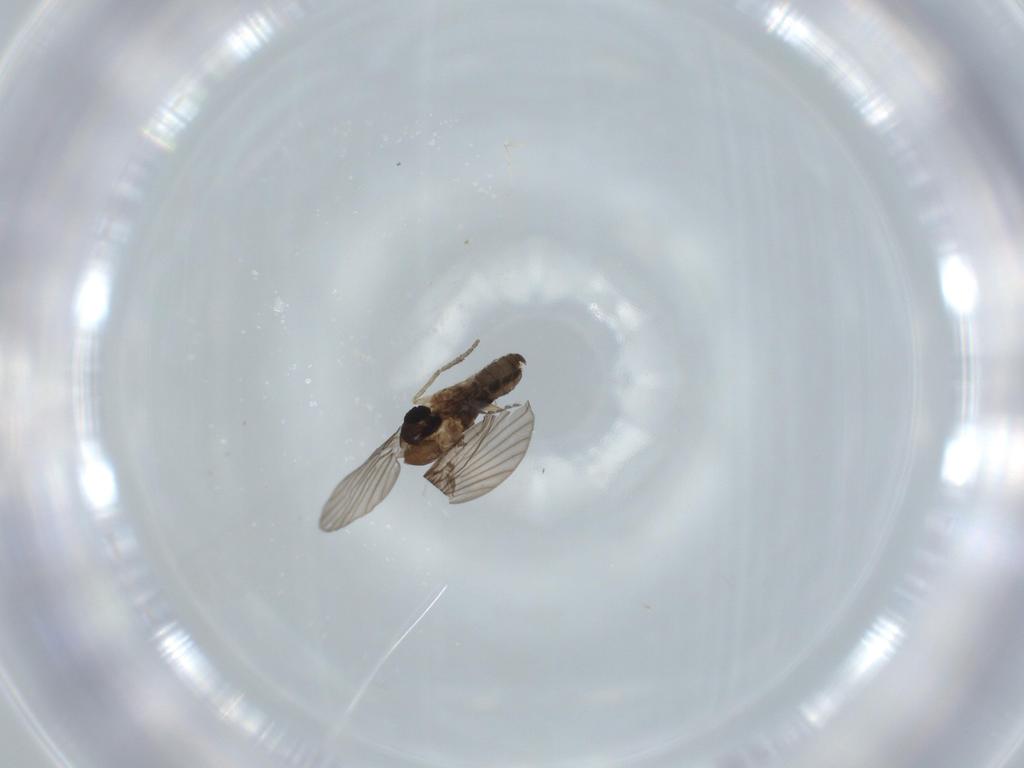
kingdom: Animalia
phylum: Arthropoda
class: Insecta
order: Diptera
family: Psychodidae
